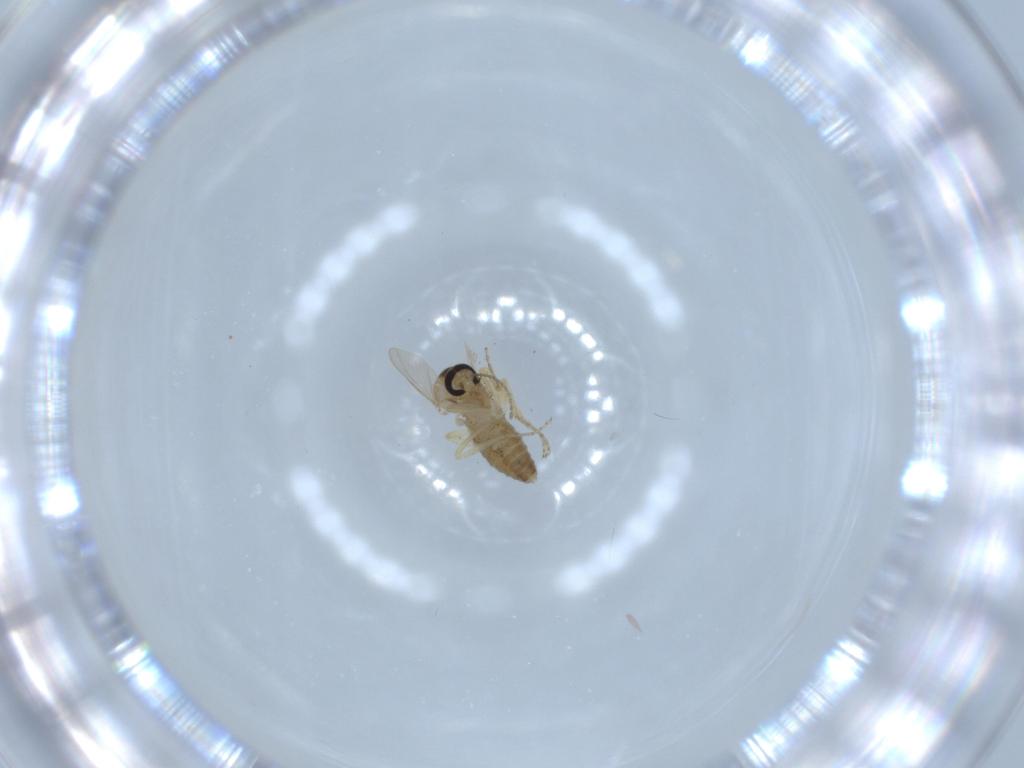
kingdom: Animalia
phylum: Arthropoda
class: Insecta
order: Diptera
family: Ceratopogonidae
